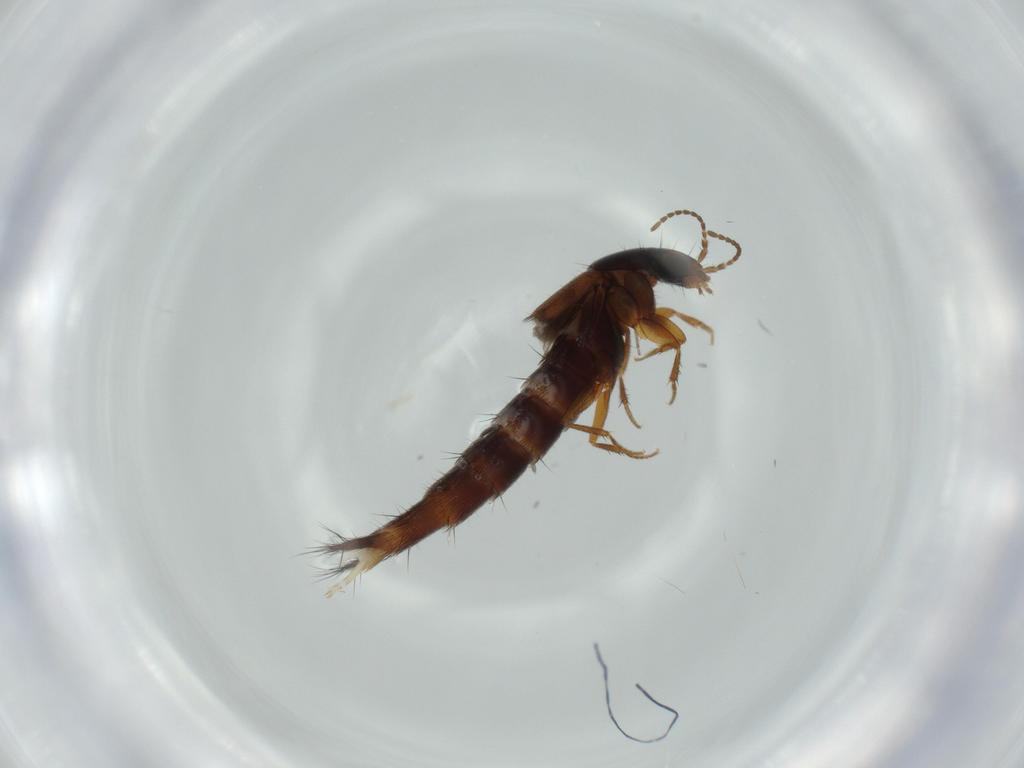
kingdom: Animalia
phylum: Arthropoda
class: Insecta
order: Coleoptera
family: Staphylinidae
